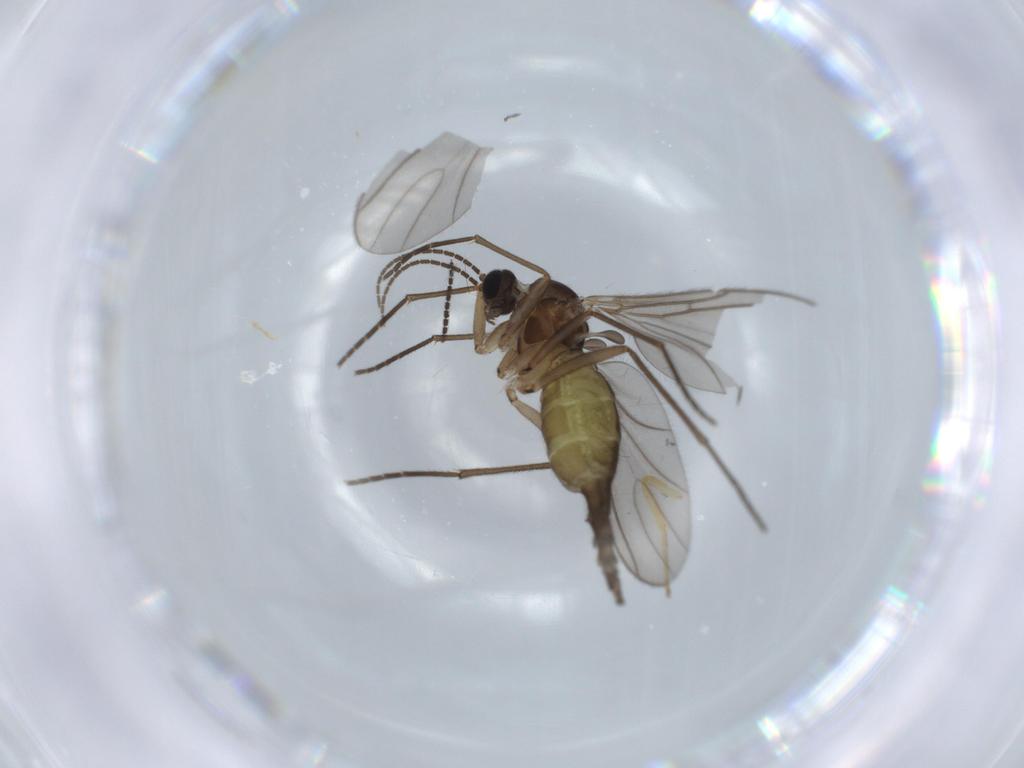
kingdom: Animalia
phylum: Arthropoda
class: Insecta
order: Diptera
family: Sciaridae
